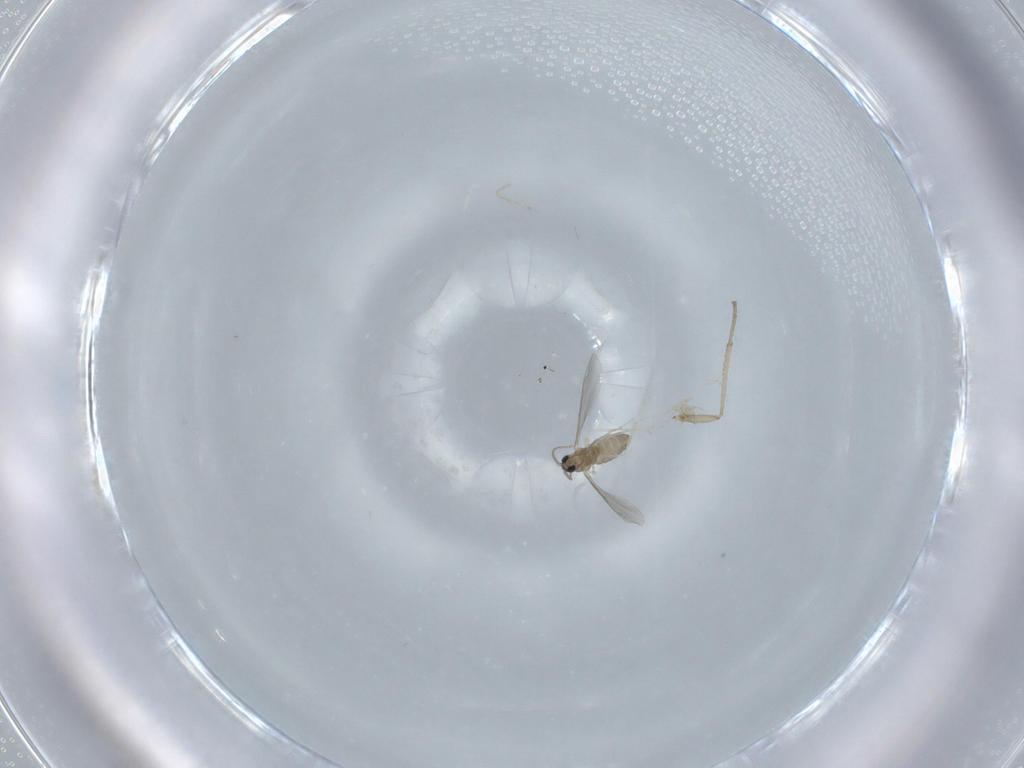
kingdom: Animalia
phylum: Arthropoda
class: Insecta
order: Diptera
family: Cecidomyiidae
